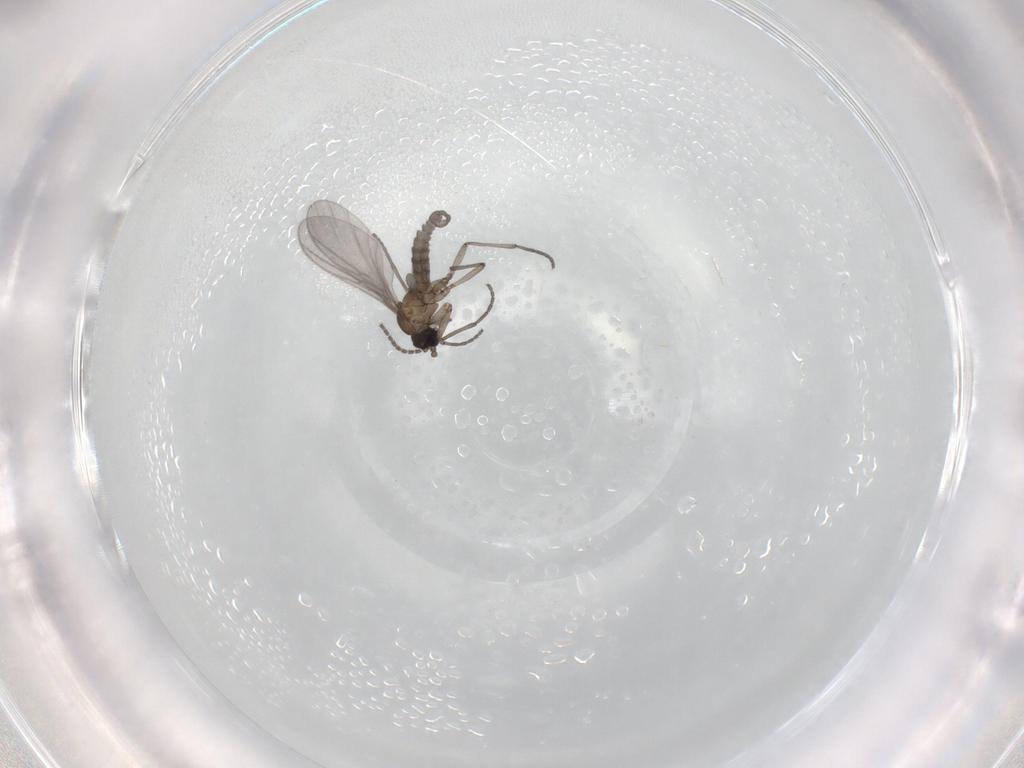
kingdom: Animalia
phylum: Arthropoda
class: Insecta
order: Diptera
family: Sciaridae
